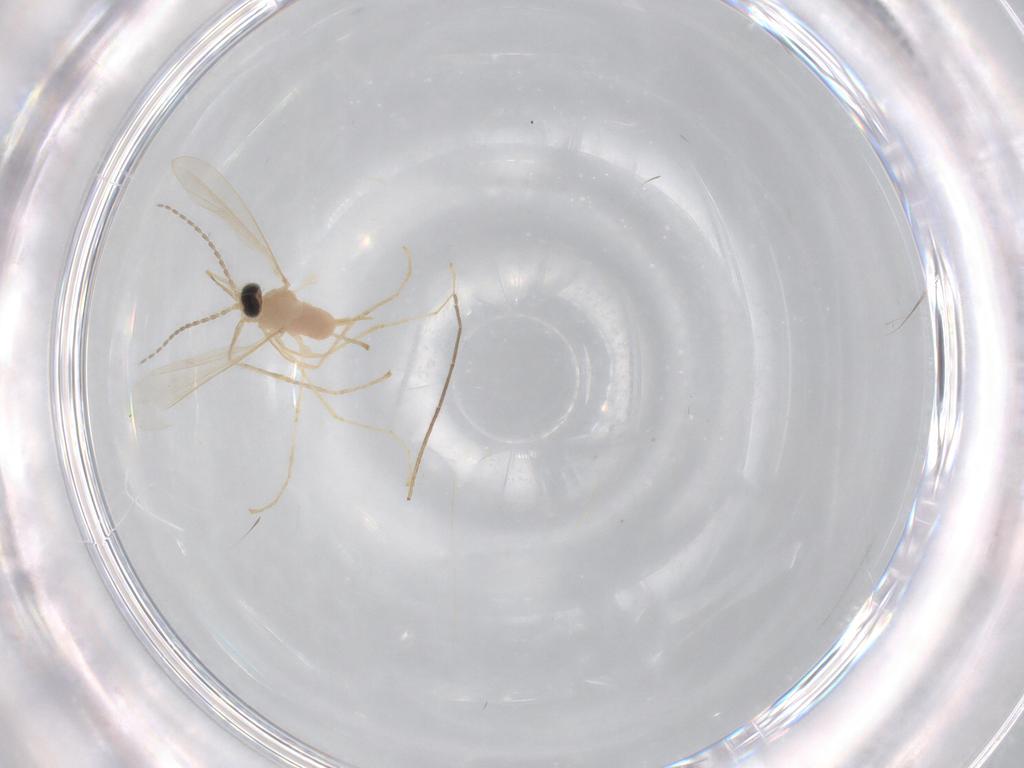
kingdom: Animalia
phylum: Arthropoda
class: Insecta
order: Diptera
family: Cecidomyiidae
